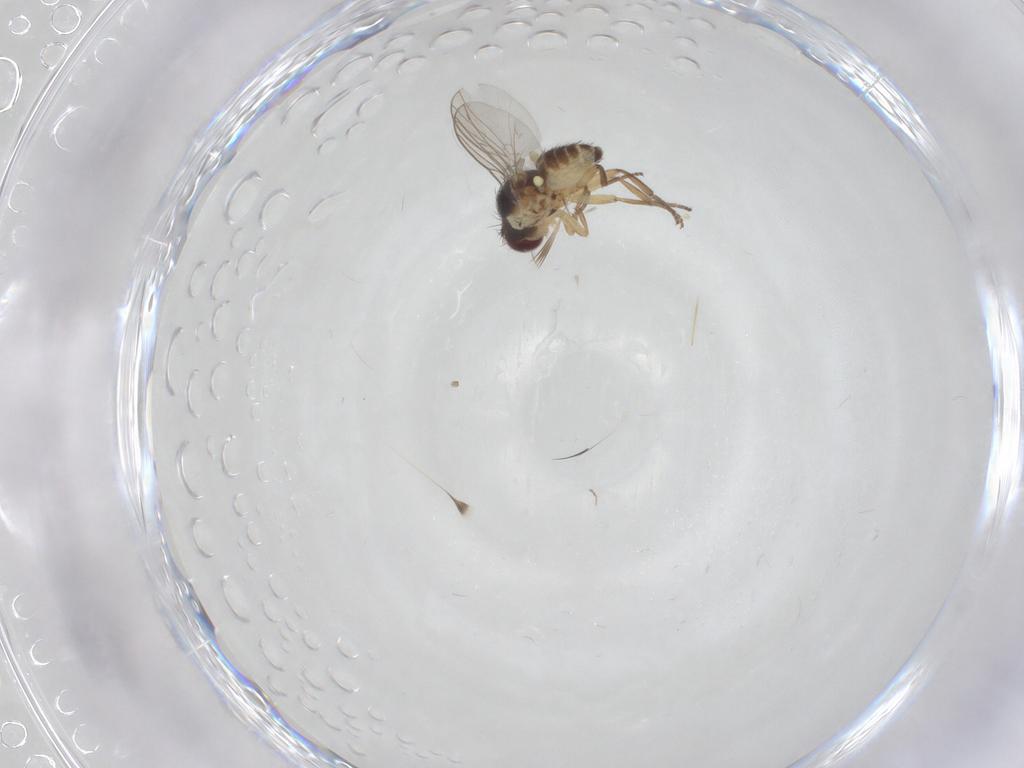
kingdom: Animalia
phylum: Arthropoda
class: Insecta
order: Diptera
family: Agromyzidae
